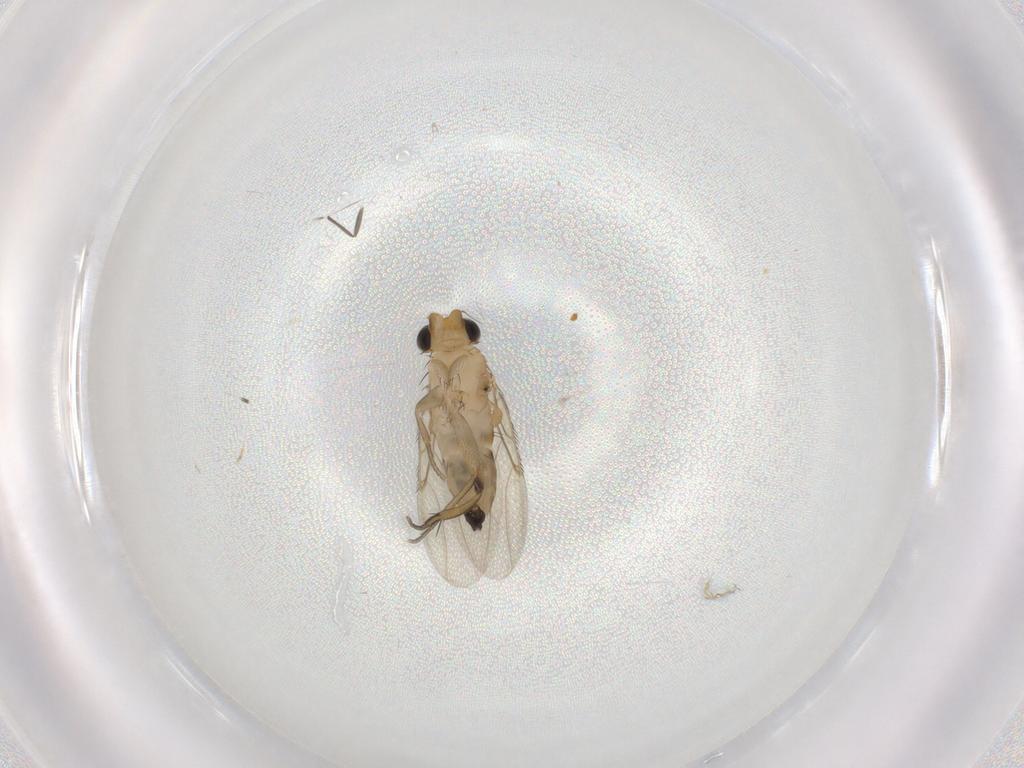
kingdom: Animalia
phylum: Arthropoda
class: Insecta
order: Diptera
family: Phoridae
